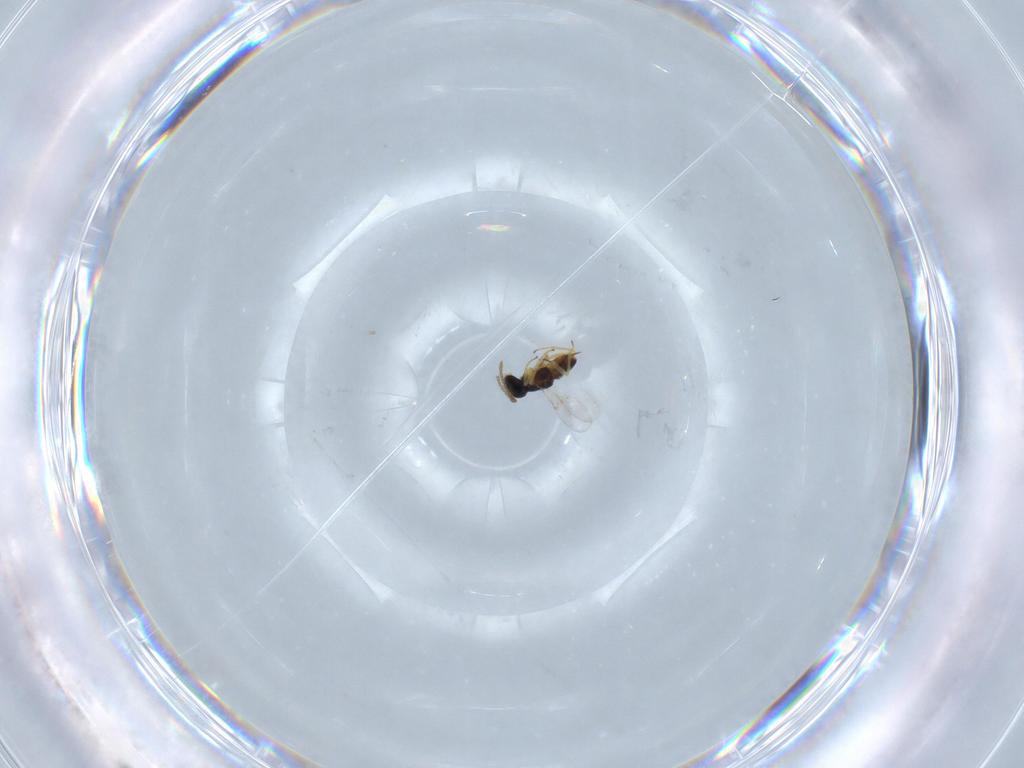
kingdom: Animalia
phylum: Arthropoda
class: Insecta
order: Hymenoptera
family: Encyrtidae
